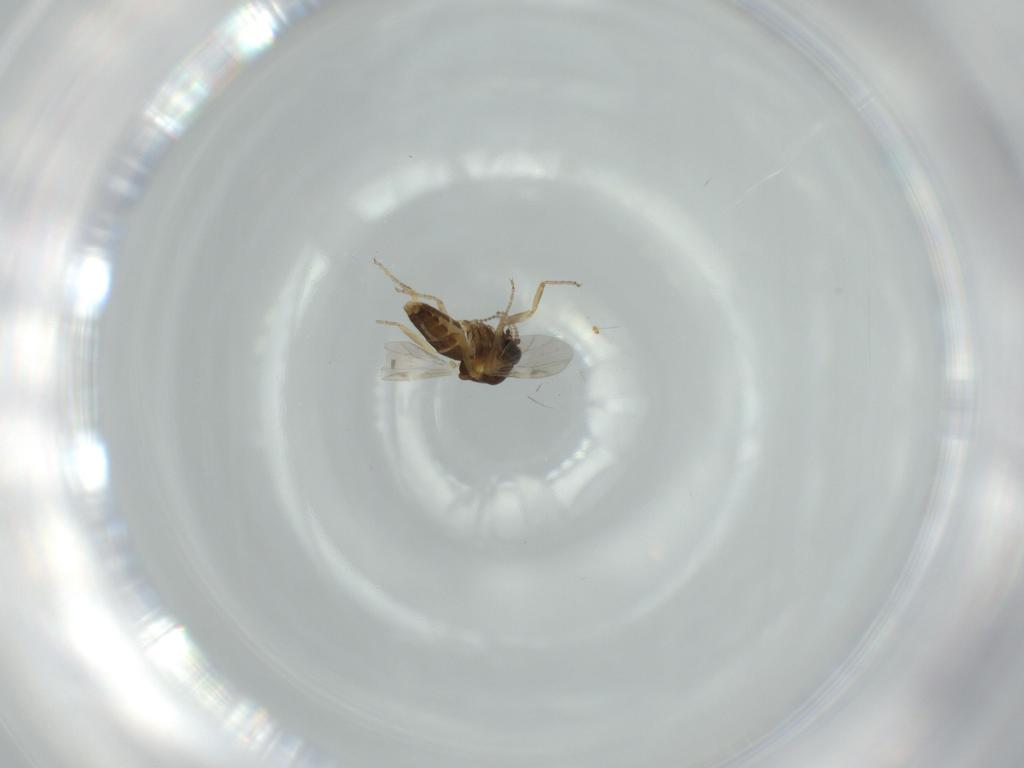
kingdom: Animalia
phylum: Arthropoda
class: Insecta
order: Diptera
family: Ceratopogonidae
